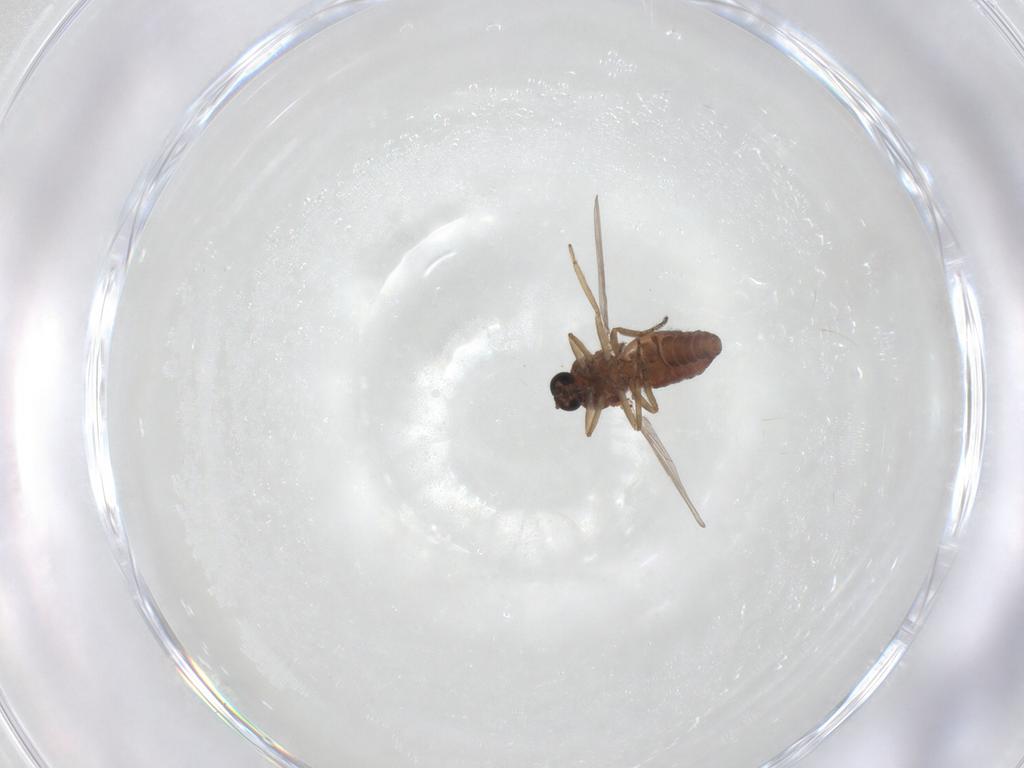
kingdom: Animalia
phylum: Arthropoda
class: Insecta
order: Diptera
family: Ceratopogonidae
